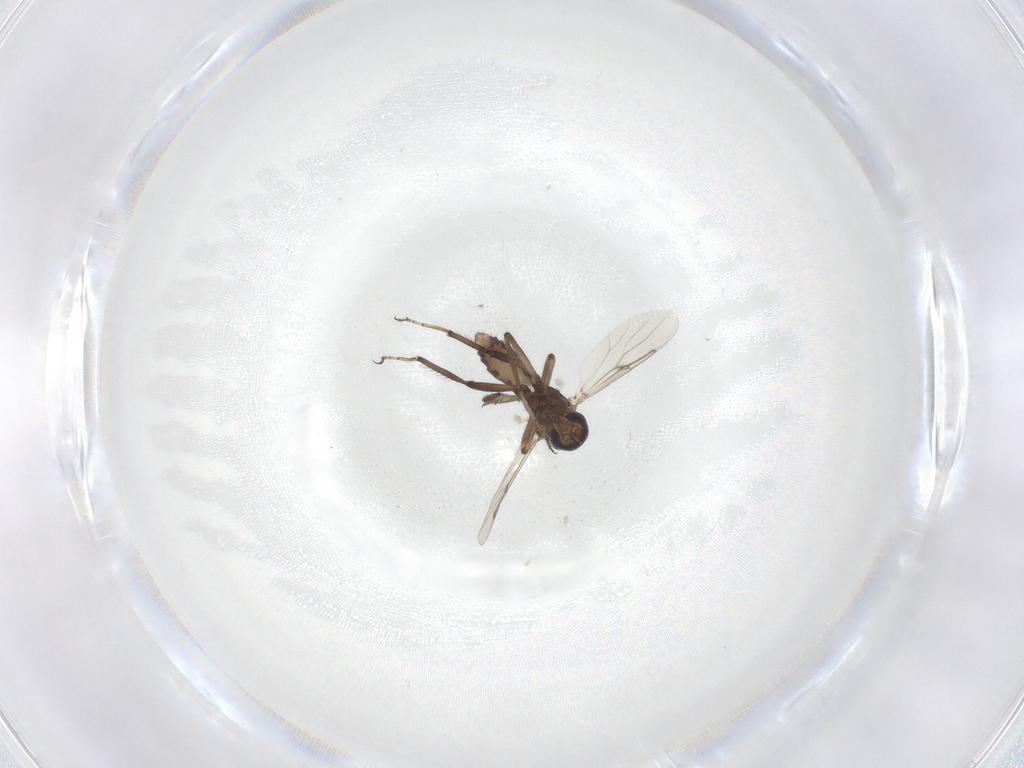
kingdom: Animalia
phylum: Arthropoda
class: Insecta
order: Diptera
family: Ceratopogonidae
